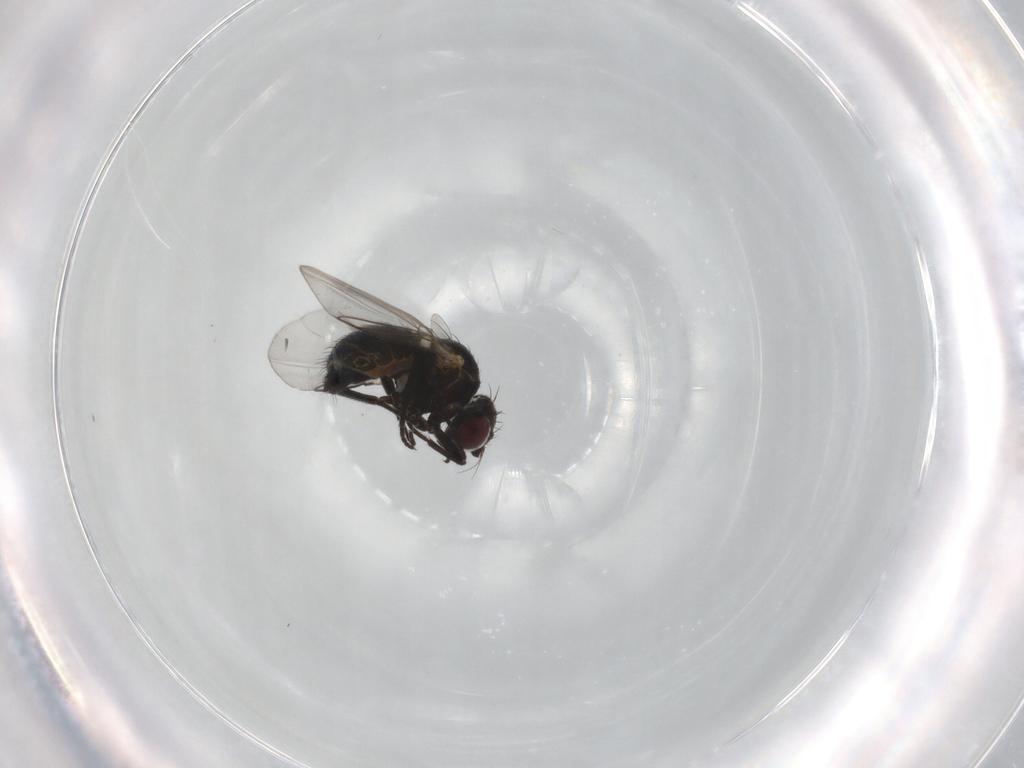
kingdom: Animalia
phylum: Arthropoda
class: Insecta
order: Diptera
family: Agromyzidae
